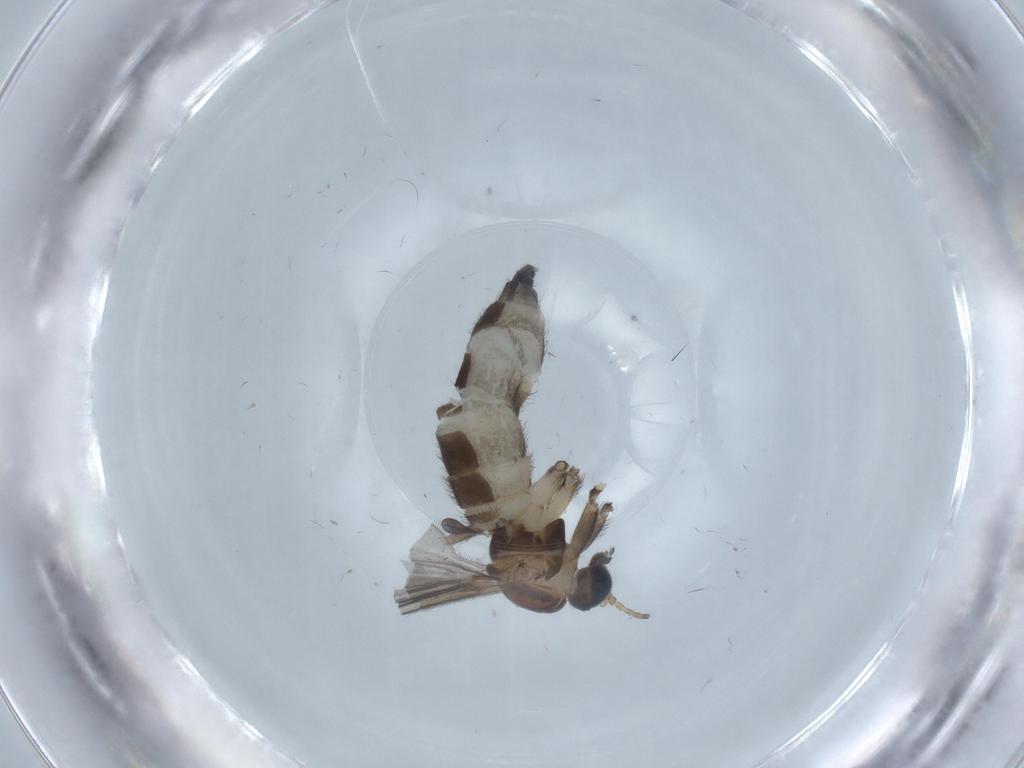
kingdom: Animalia
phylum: Arthropoda
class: Insecta
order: Diptera
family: Sciaridae
